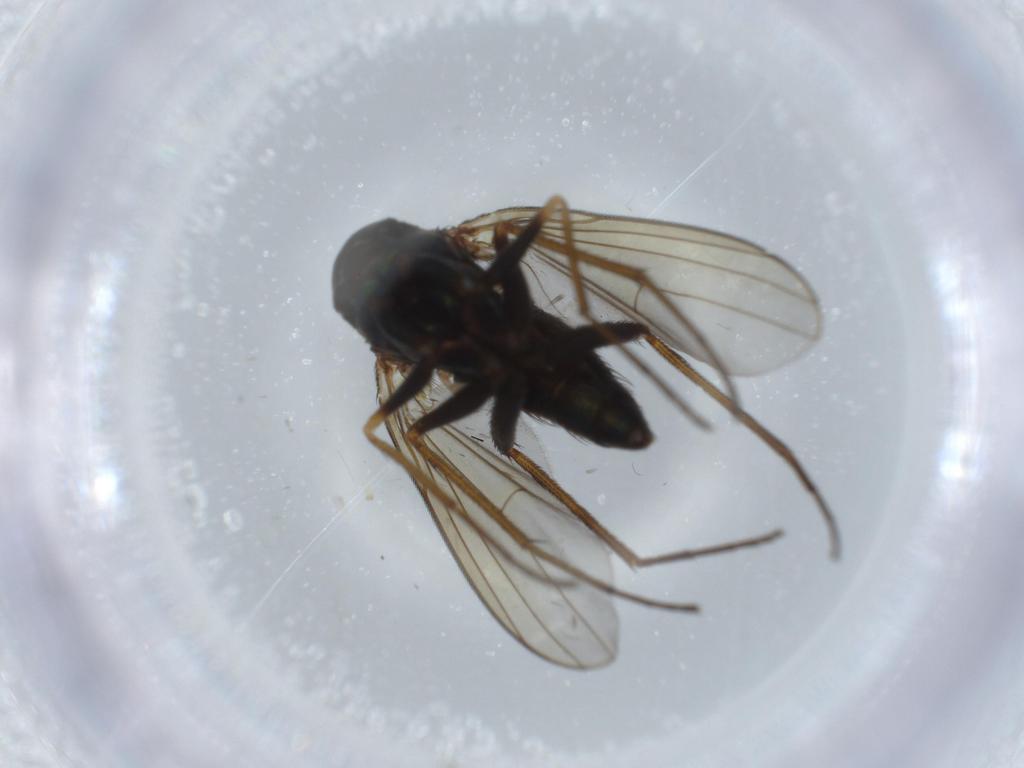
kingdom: Animalia
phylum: Arthropoda
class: Insecta
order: Diptera
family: Dolichopodidae
